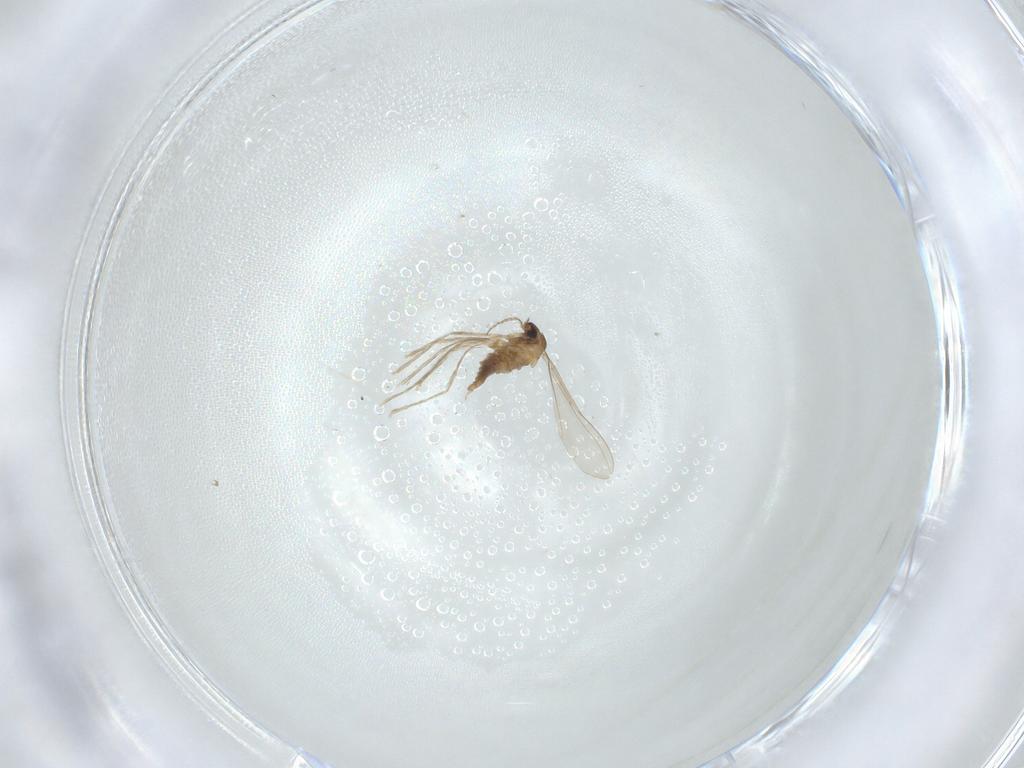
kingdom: Animalia
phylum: Arthropoda
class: Insecta
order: Diptera
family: Cecidomyiidae
